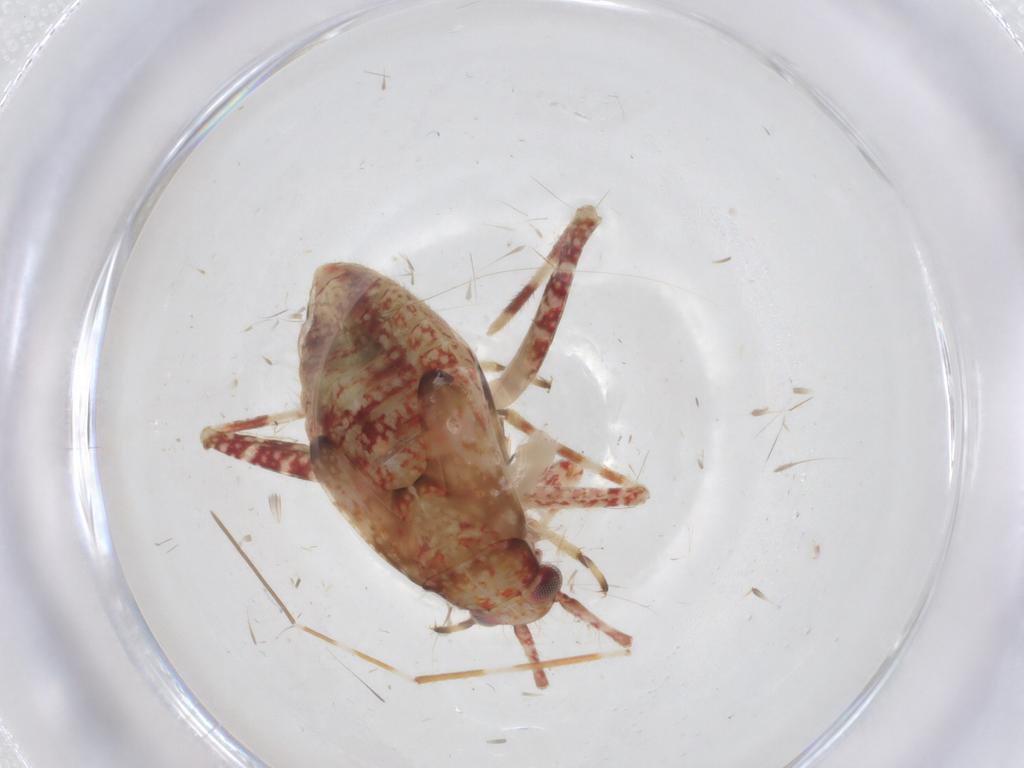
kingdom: Animalia
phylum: Arthropoda
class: Insecta
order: Hemiptera
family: Miridae
